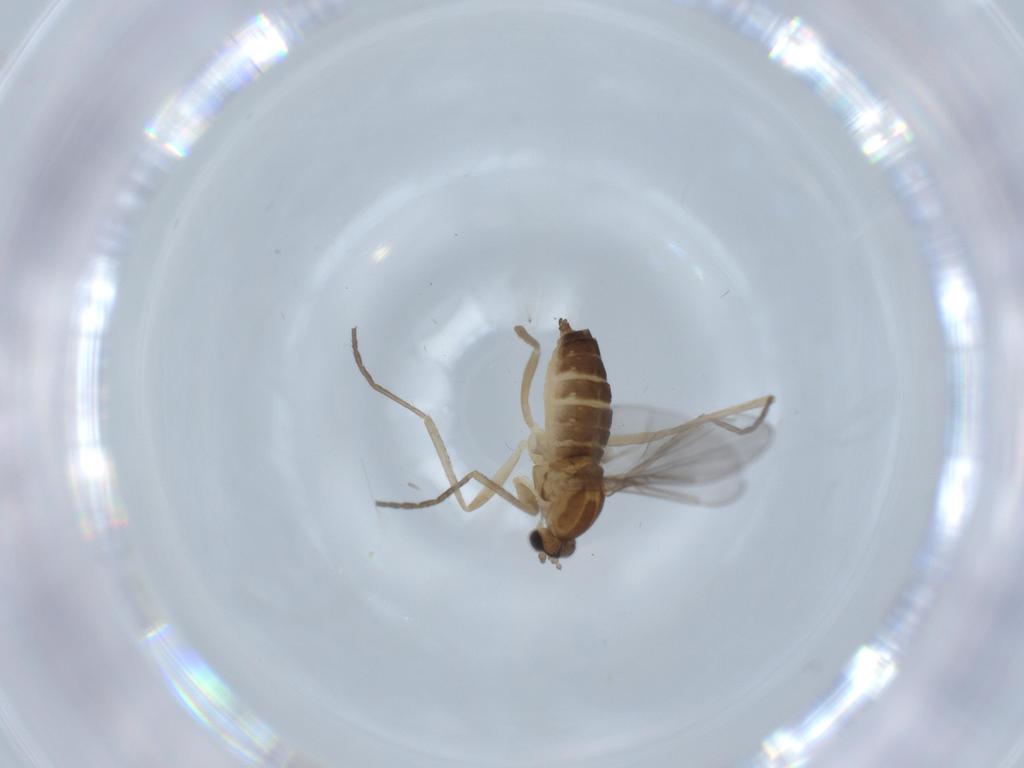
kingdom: Animalia
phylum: Arthropoda
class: Insecta
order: Diptera
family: Cecidomyiidae
